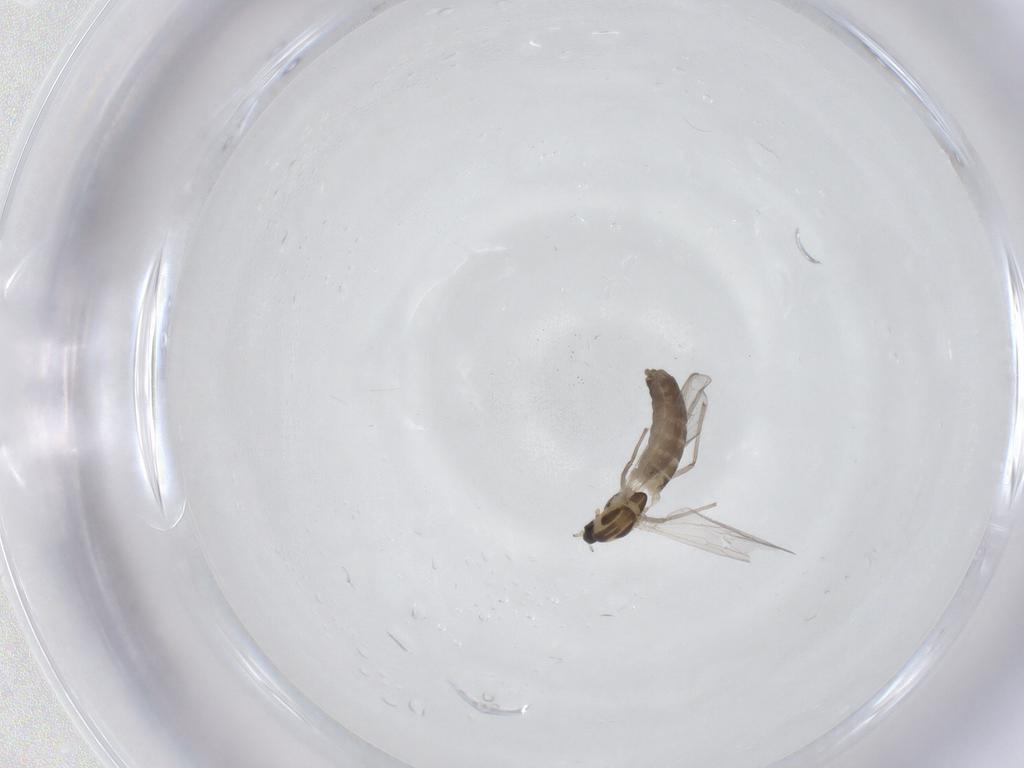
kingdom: Animalia
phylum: Arthropoda
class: Insecta
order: Diptera
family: Chironomidae
